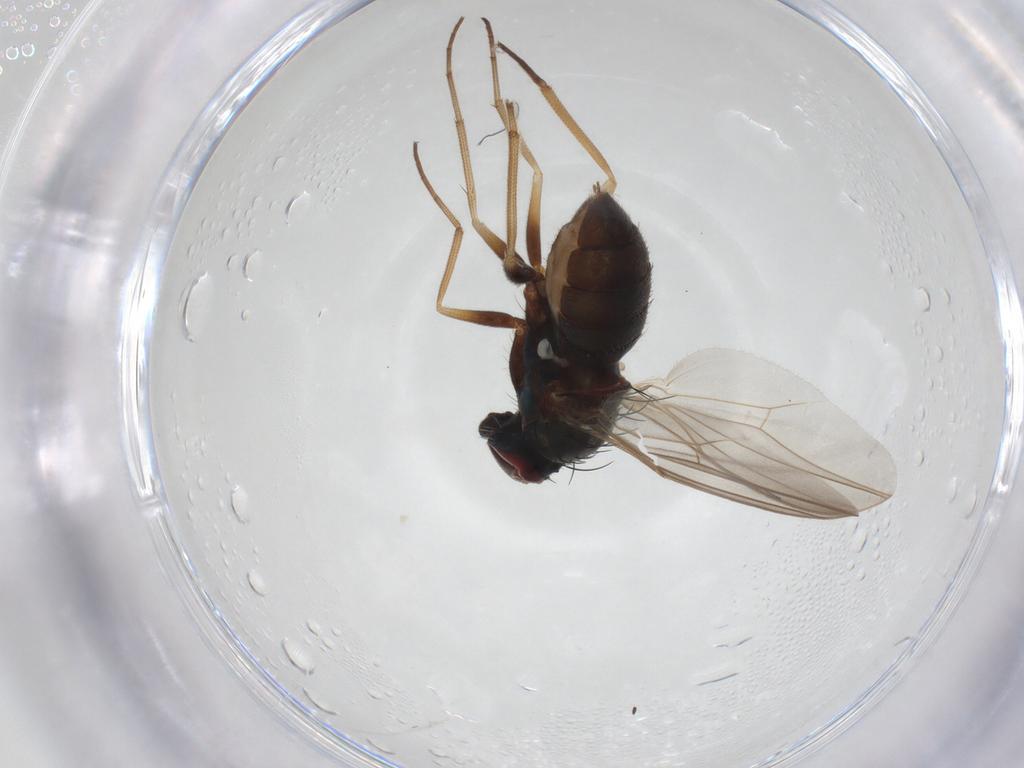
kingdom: Animalia
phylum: Arthropoda
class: Insecta
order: Diptera
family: Dolichopodidae
